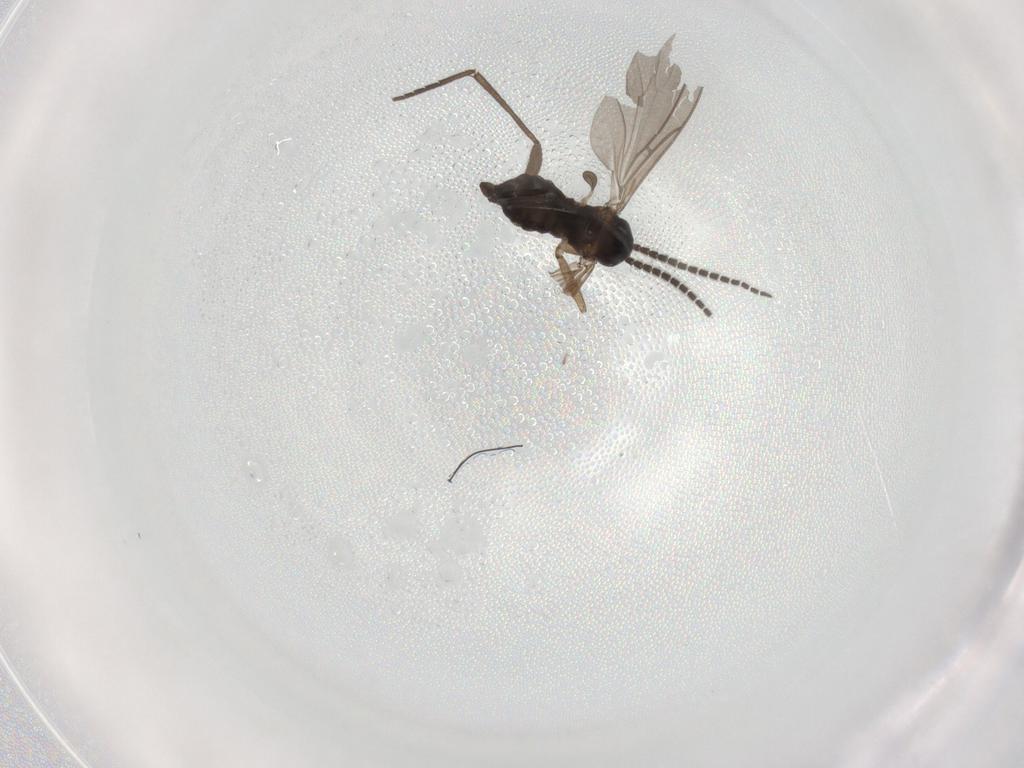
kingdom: Animalia
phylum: Arthropoda
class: Insecta
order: Diptera
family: Sciaridae
